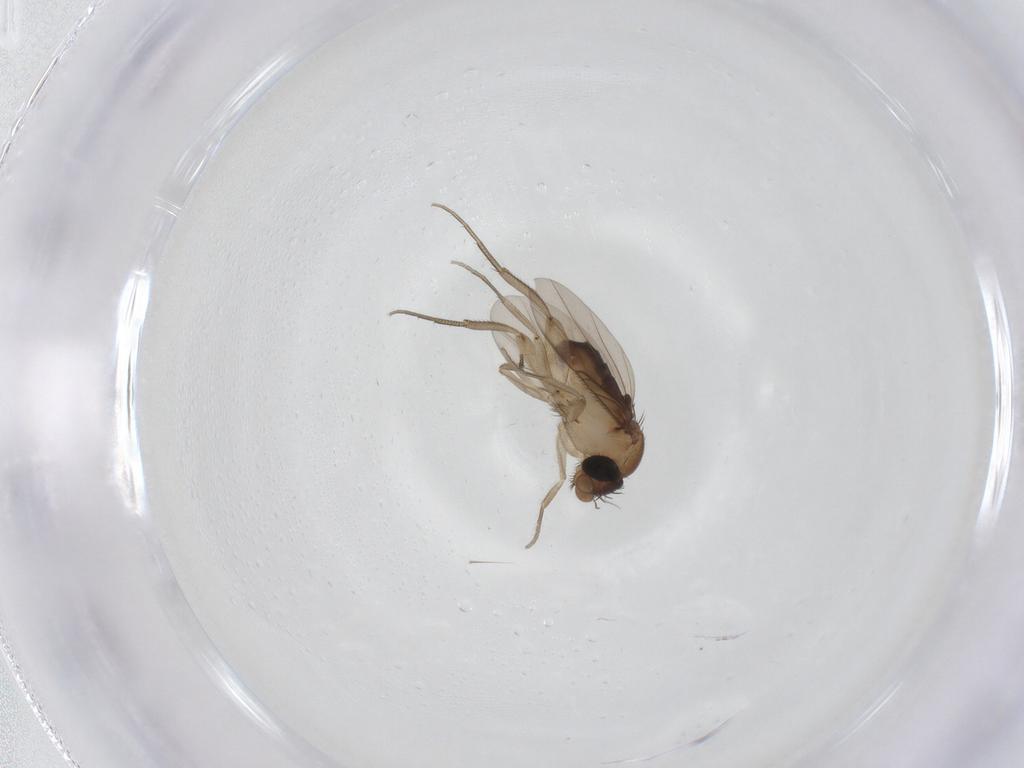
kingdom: Animalia
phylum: Arthropoda
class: Insecta
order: Diptera
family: Phoridae
